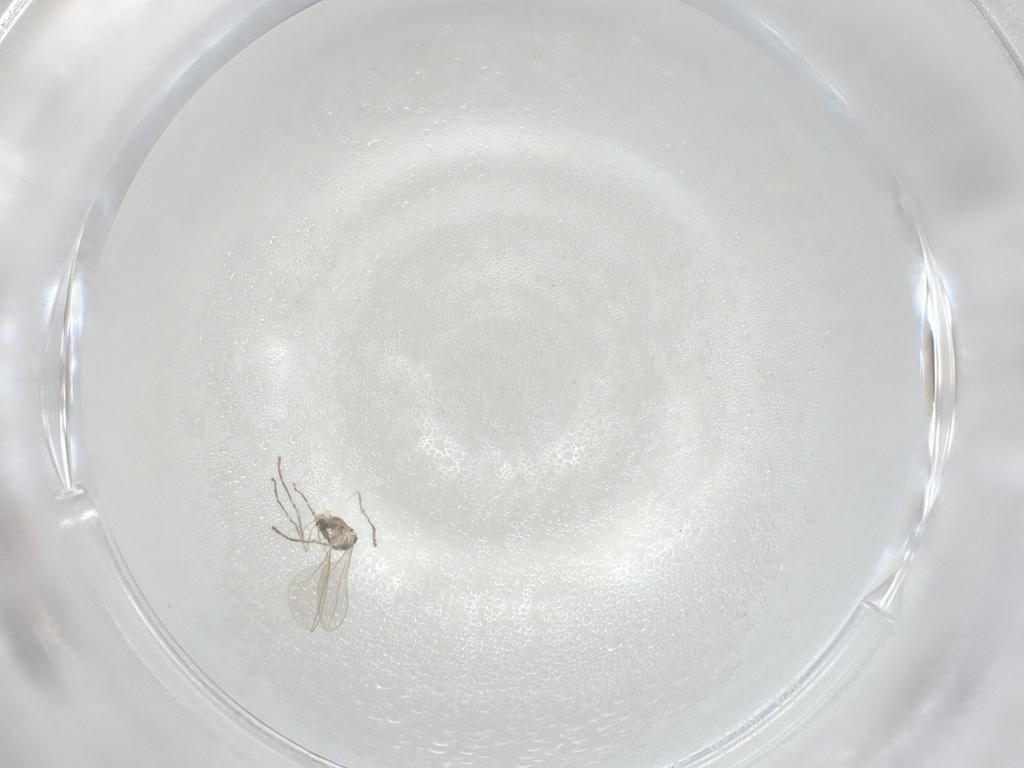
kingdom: Animalia
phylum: Arthropoda
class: Insecta
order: Diptera
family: Cecidomyiidae
